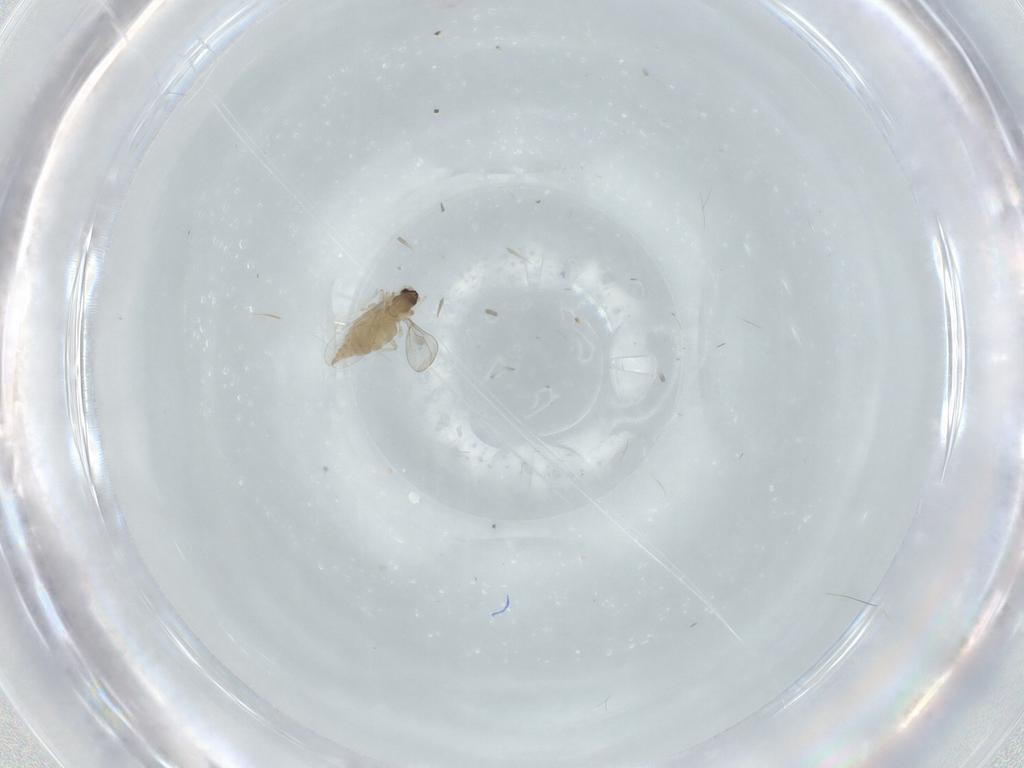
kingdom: Animalia
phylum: Arthropoda
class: Insecta
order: Diptera
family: Cecidomyiidae
